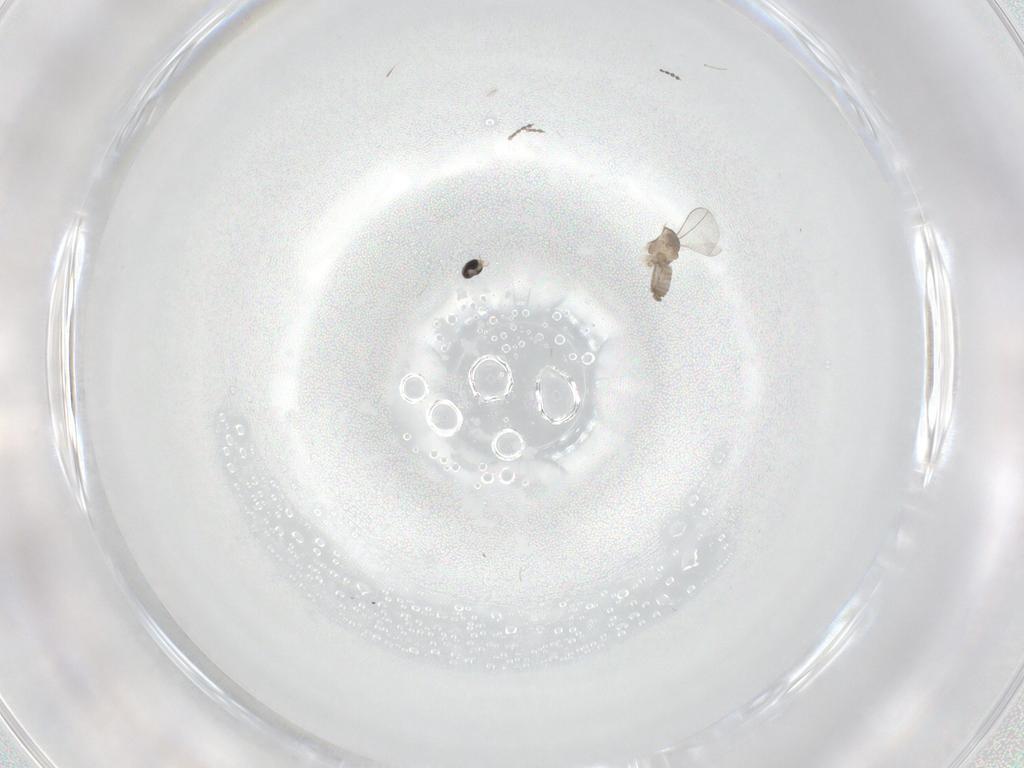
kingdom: Animalia
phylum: Arthropoda
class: Insecta
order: Diptera
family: Cecidomyiidae
